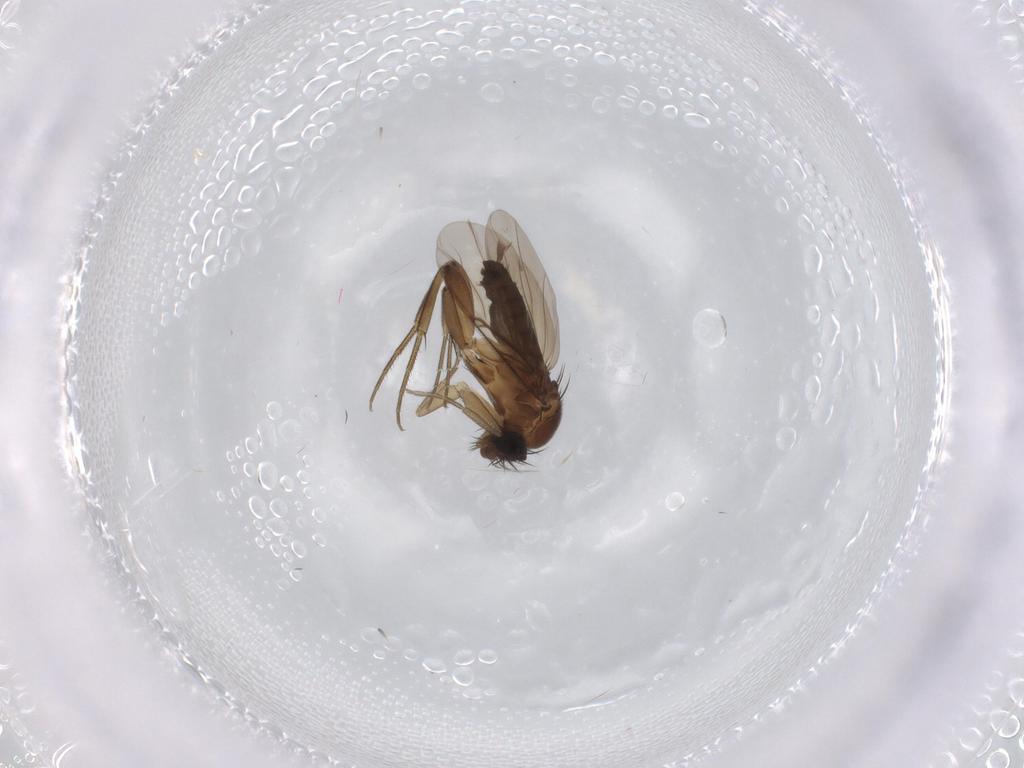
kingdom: Animalia
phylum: Arthropoda
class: Insecta
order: Diptera
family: Phoridae
